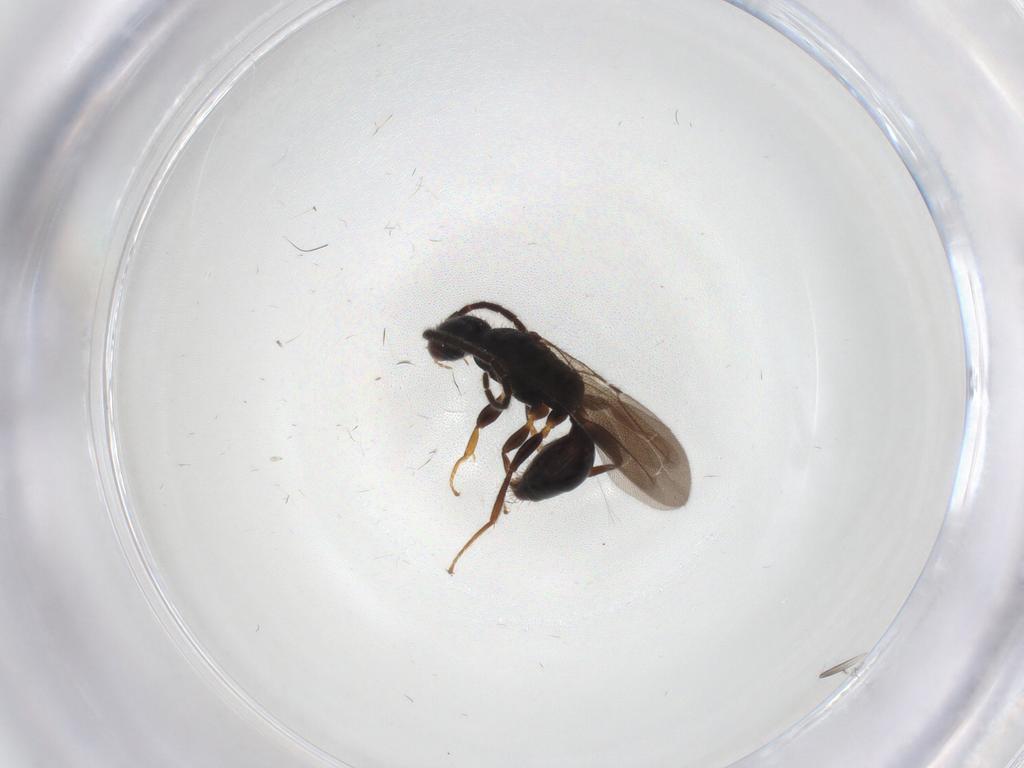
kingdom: Animalia
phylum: Arthropoda
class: Insecta
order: Hymenoptera
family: Bethylidae
